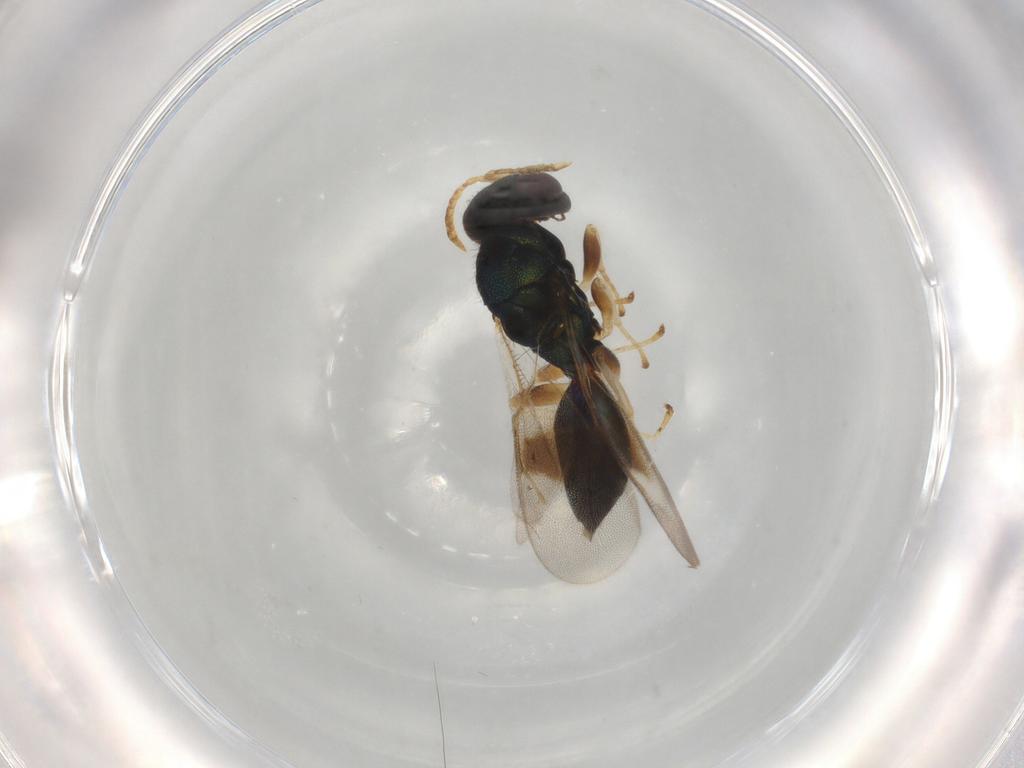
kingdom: Animalia
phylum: Arthropoda
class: Insecta
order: Hymenoptera
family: Pteromalidae
